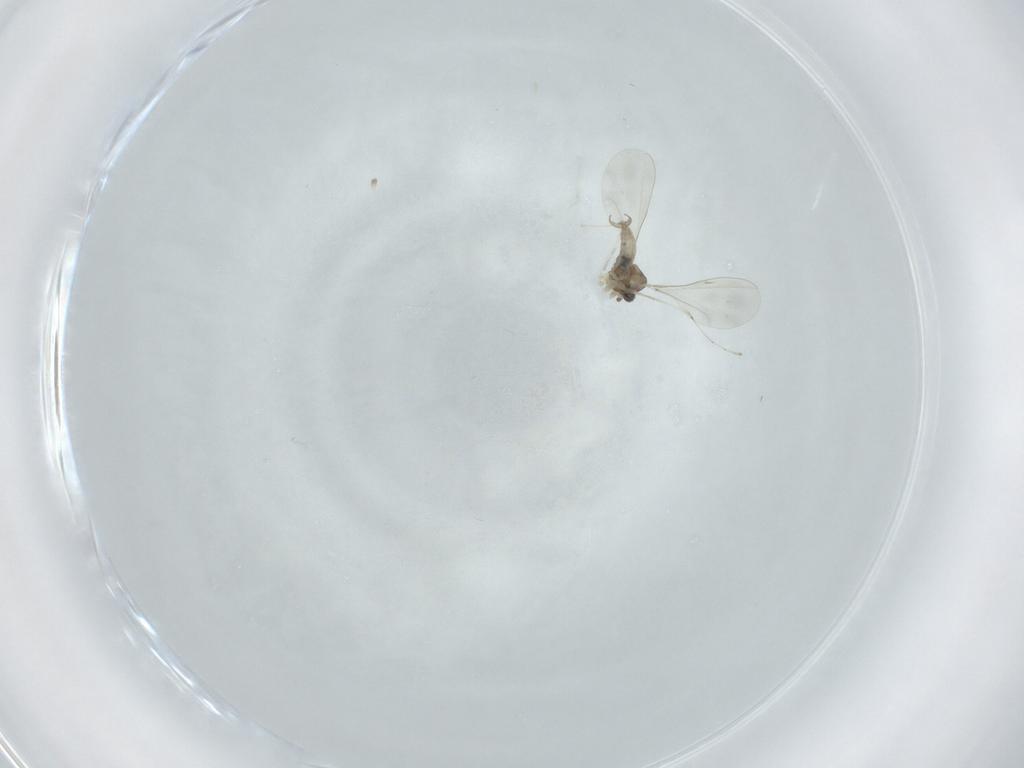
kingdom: Animalia
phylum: Arthropoda
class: Insecta
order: Diptera
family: Cecidomyiidae
